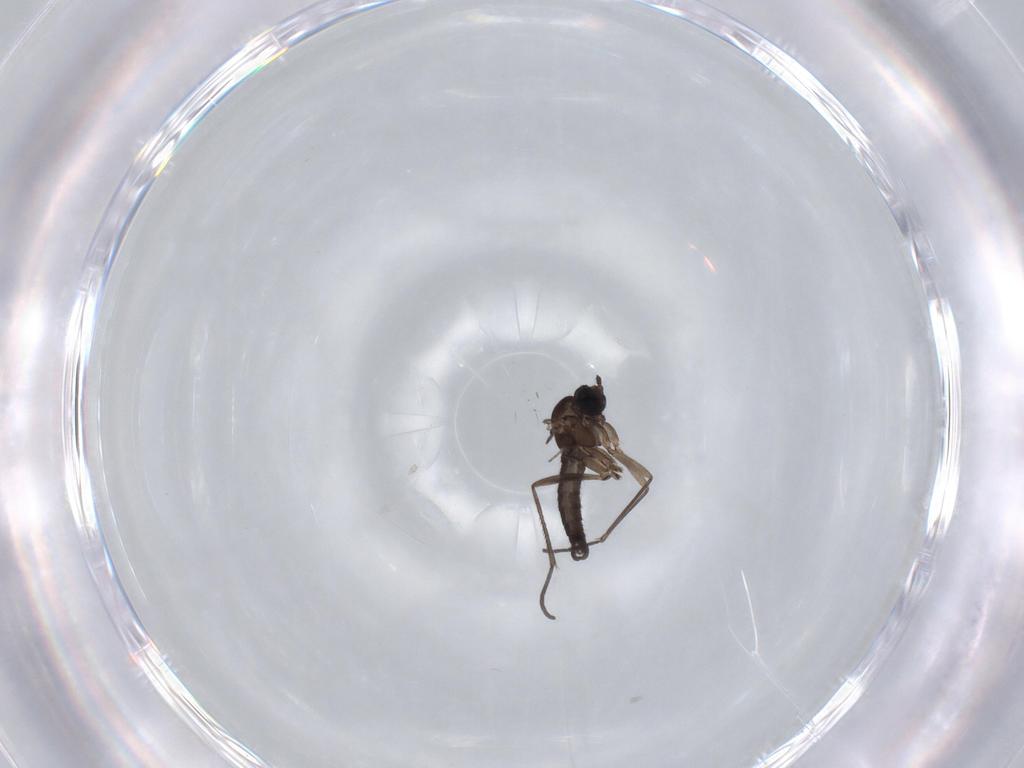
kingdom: Animalia
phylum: Arthropoda
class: Insecta
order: Diptera
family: Sciaridae
